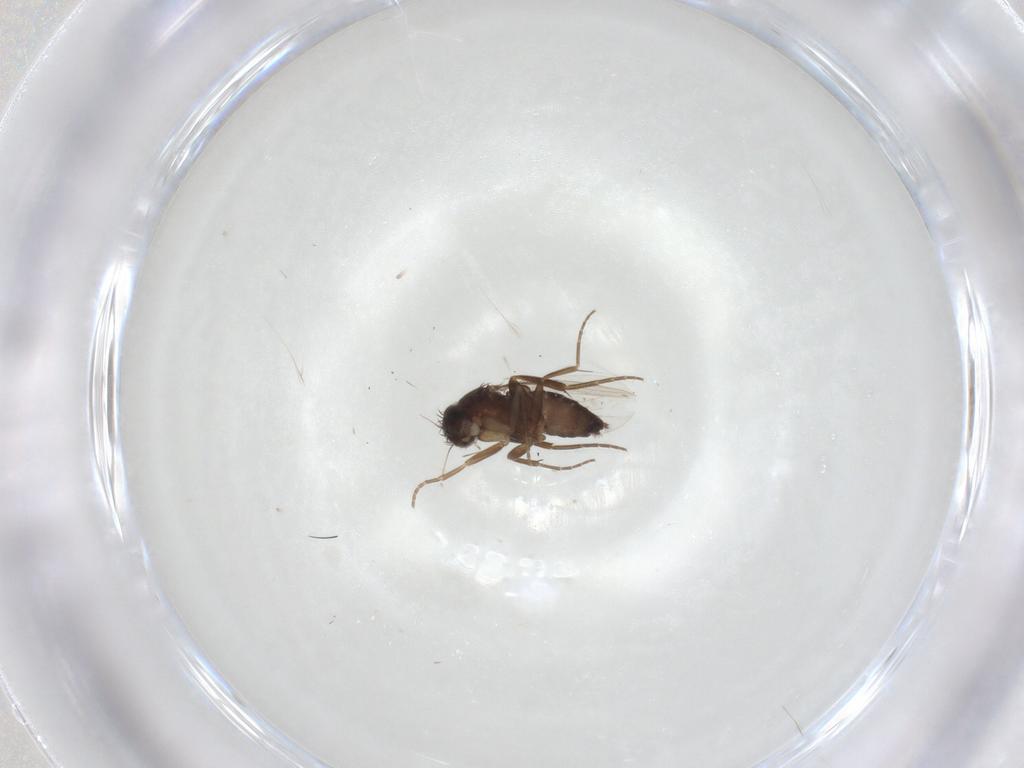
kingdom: Animalia
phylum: Arthropoda
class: Insecta
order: Diptera
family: Phoridae
